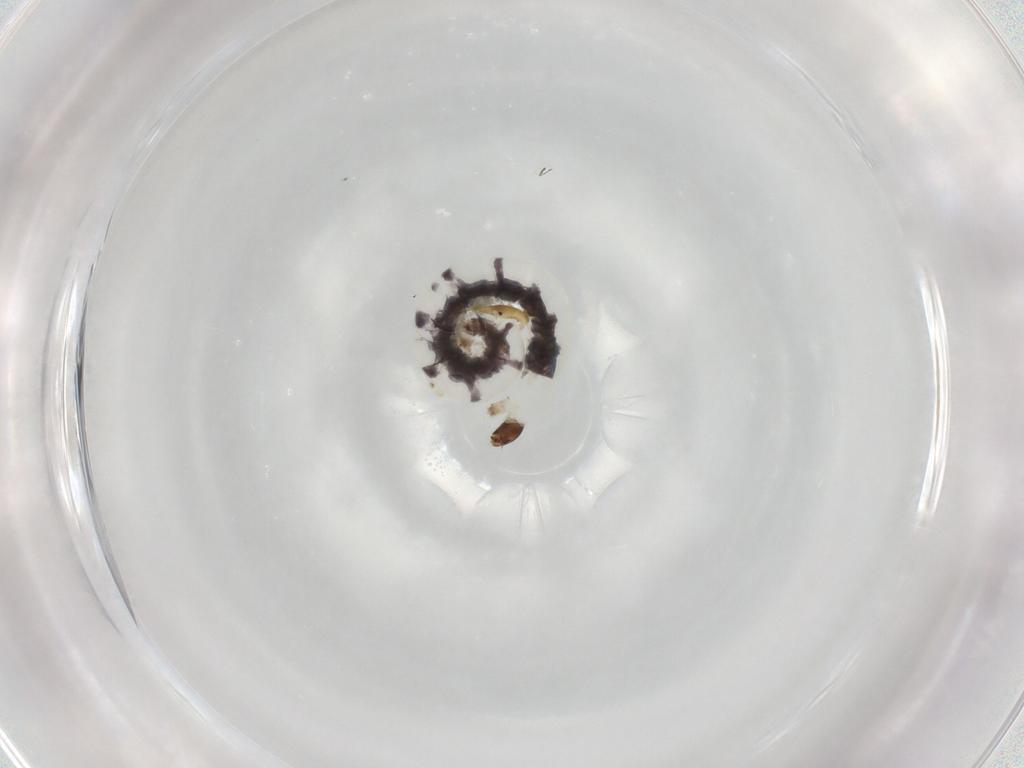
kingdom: Animalia
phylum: Arthropoda
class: Insecta
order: Diptera
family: Chironomidae
